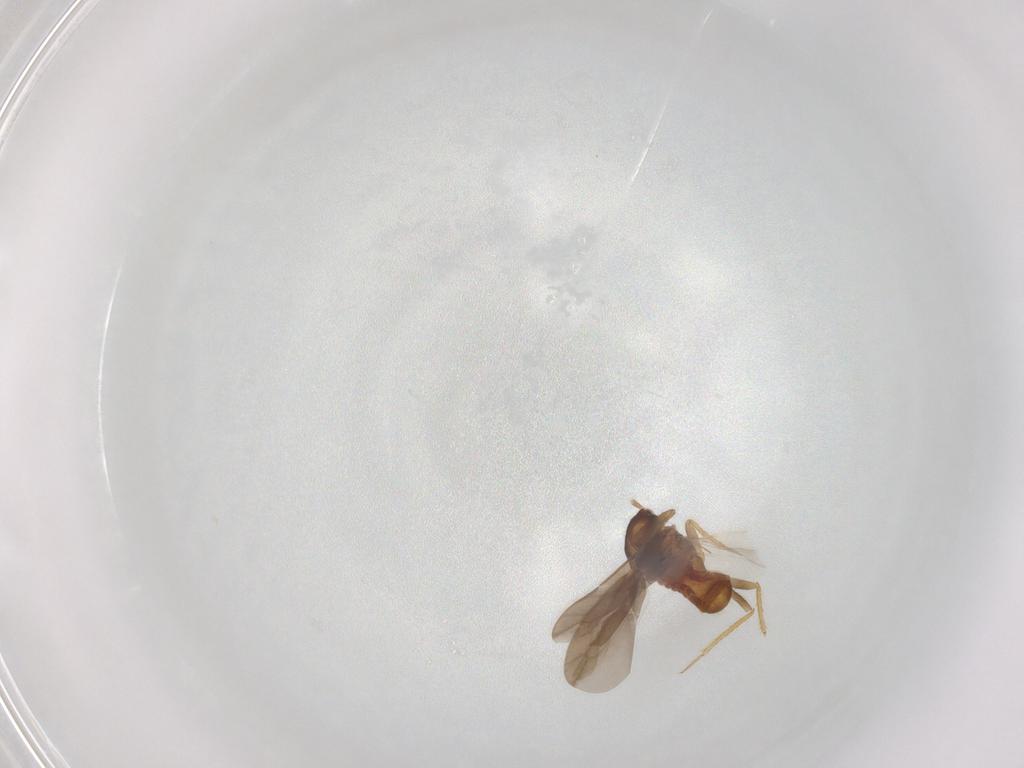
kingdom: Animalia
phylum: Arthropoda
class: Insecta
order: Hemiptera
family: Ceratocombidae
